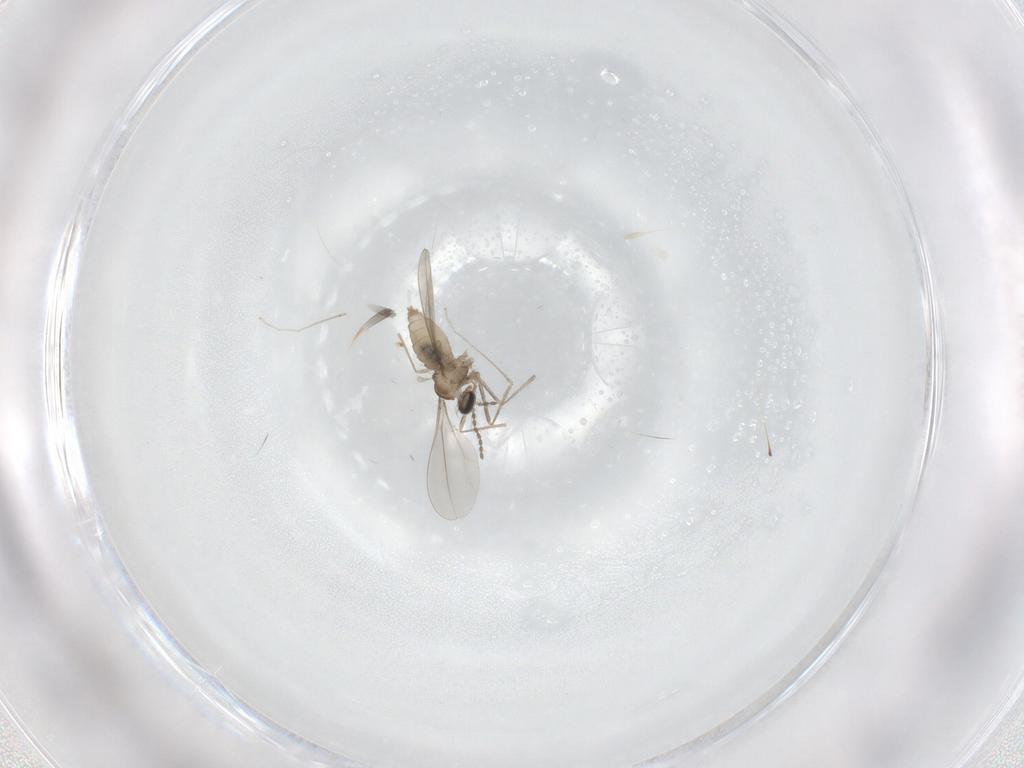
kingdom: Animalia
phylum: Arthropoda
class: Insecta
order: Diptera
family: Cecidomyiidae
